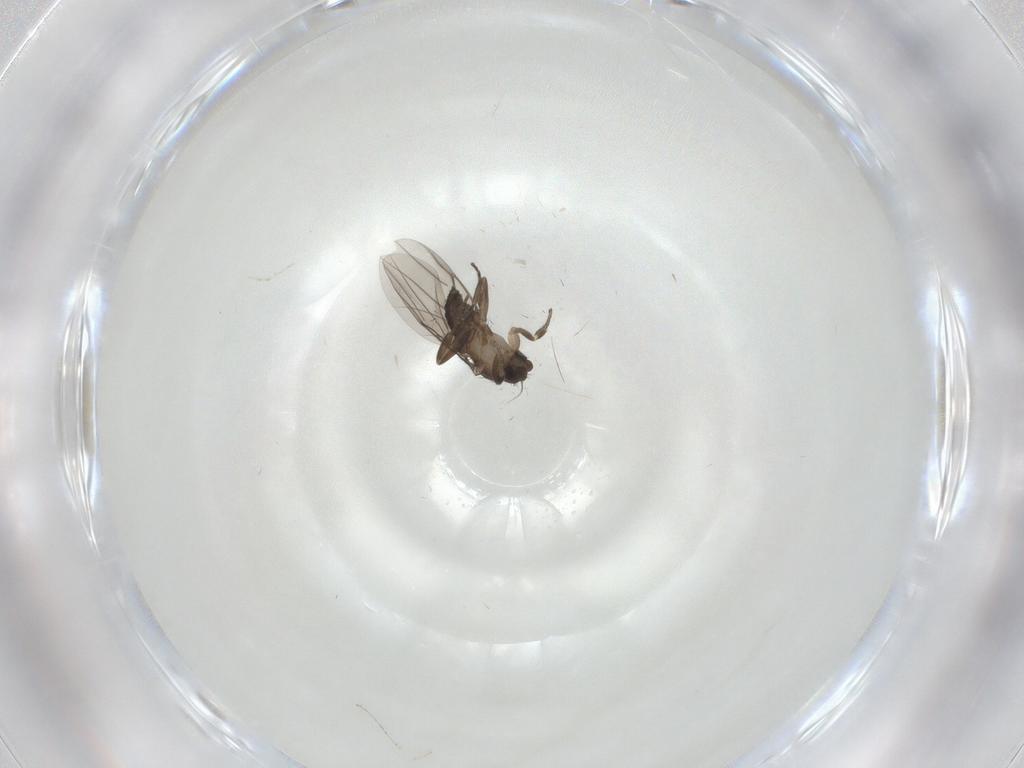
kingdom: Animalia
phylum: Arthropoda
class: Insecta
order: Diptera
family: Phoridae
